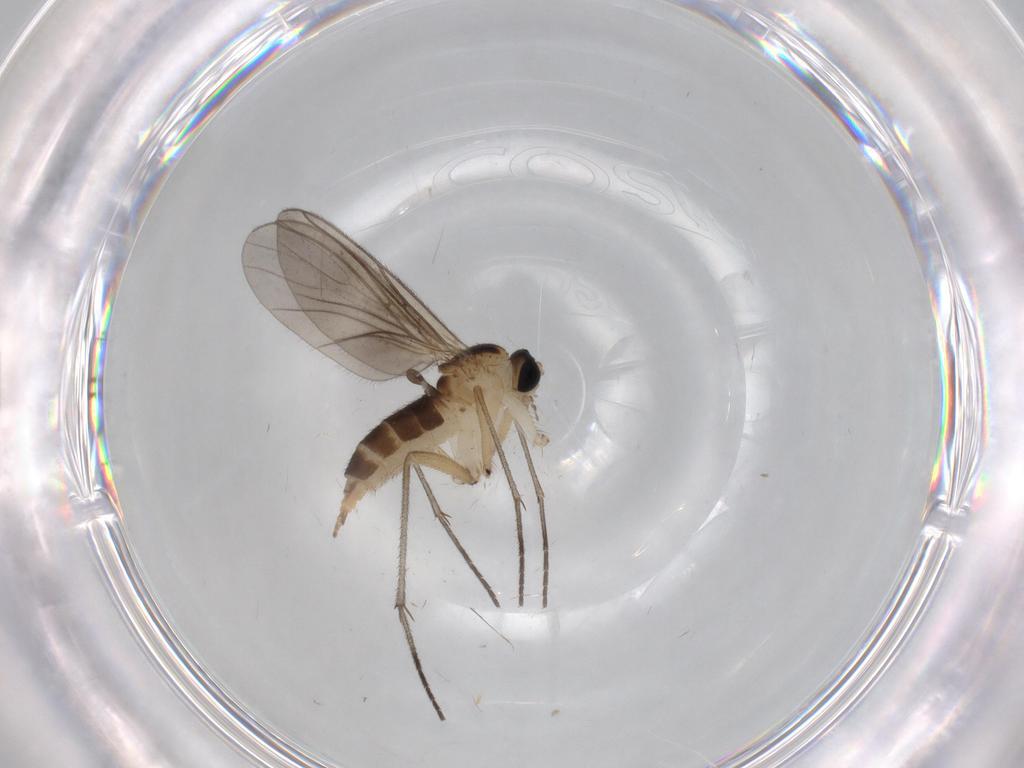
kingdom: Animalia
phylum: Arthropoda
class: Insecta
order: Diptera
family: Sciaridae
